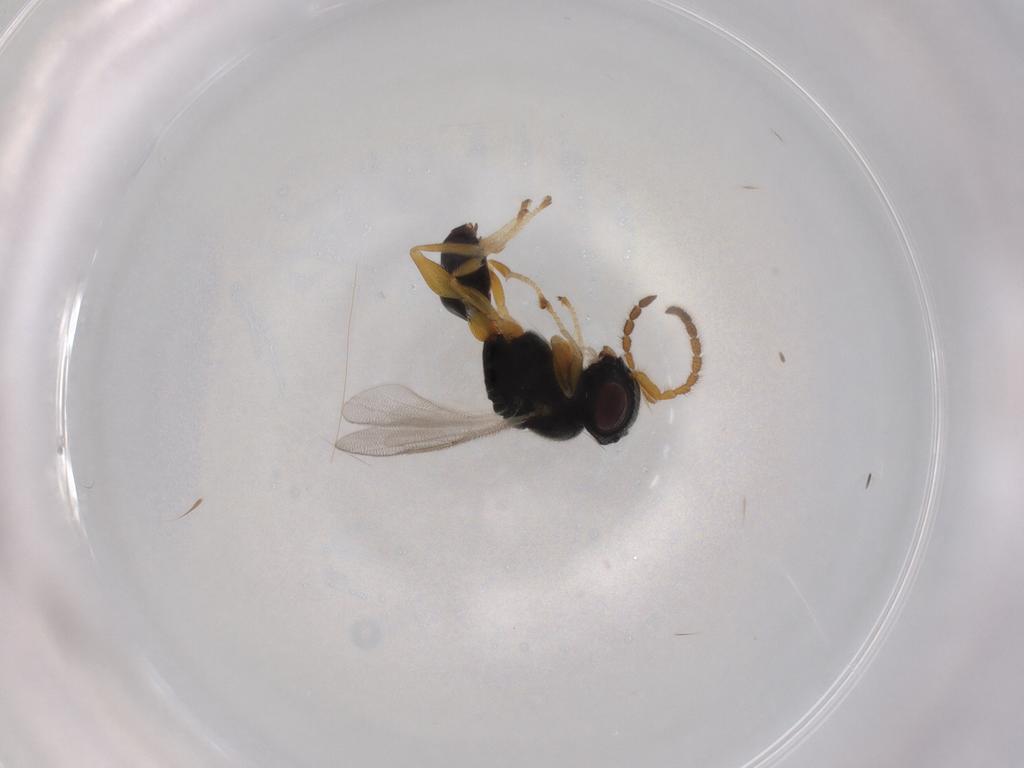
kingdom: Animalia
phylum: Arthropoda
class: Insecta
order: Hymenoptera
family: Dryinidae
